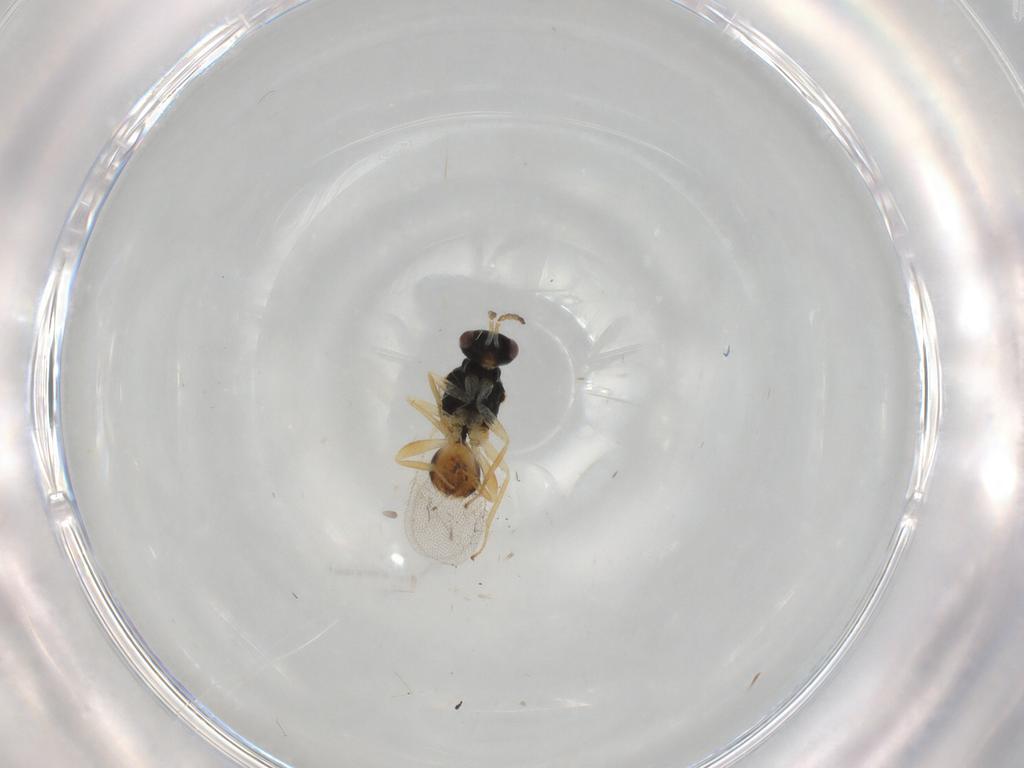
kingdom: Animalia
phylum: Arthropoda
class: Insecta
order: Hymenoptera
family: Eulophidae
